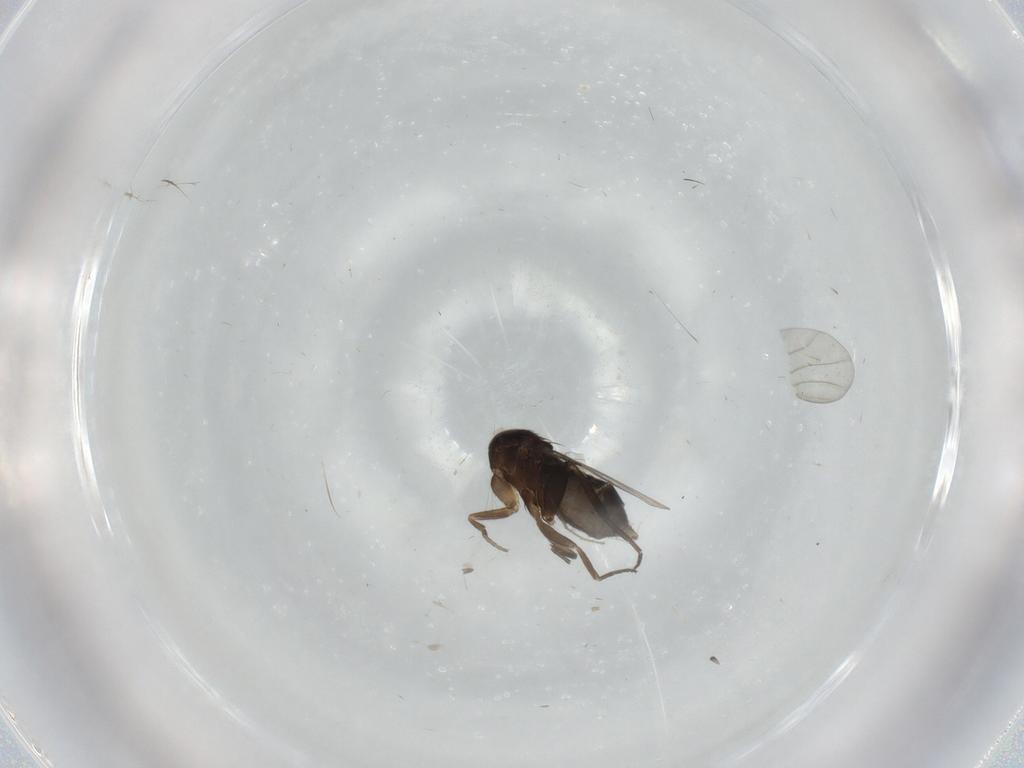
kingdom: Animalia
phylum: Arthropoda
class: Insecta
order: Diptera
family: Phoridae
